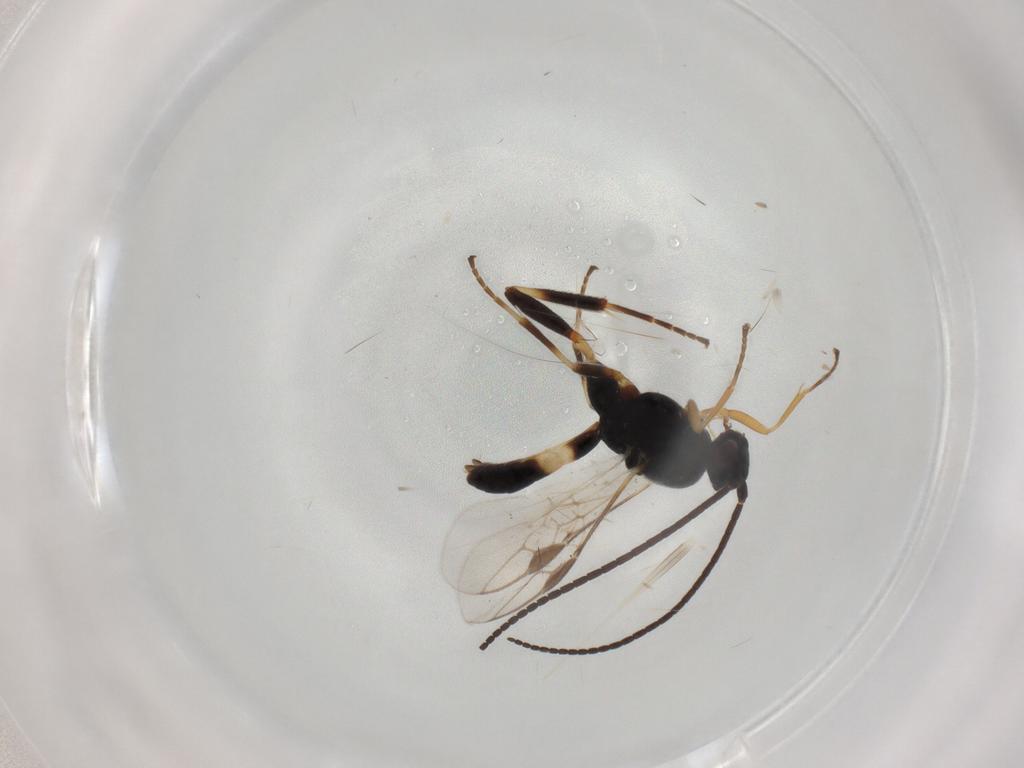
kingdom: Animalia
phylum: Arthropoda
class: Insecta
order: Hymenoptera
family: Braconidae
